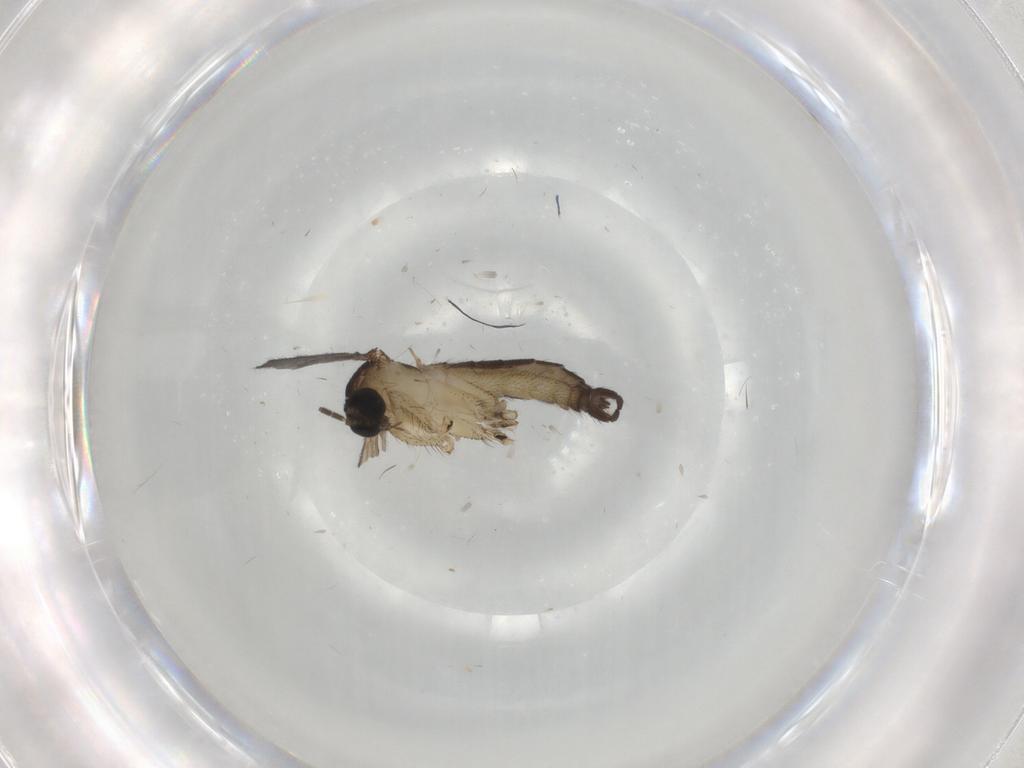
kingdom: Animalia
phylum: Arthropoda
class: Insecta
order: Diptera
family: Sciaridae
